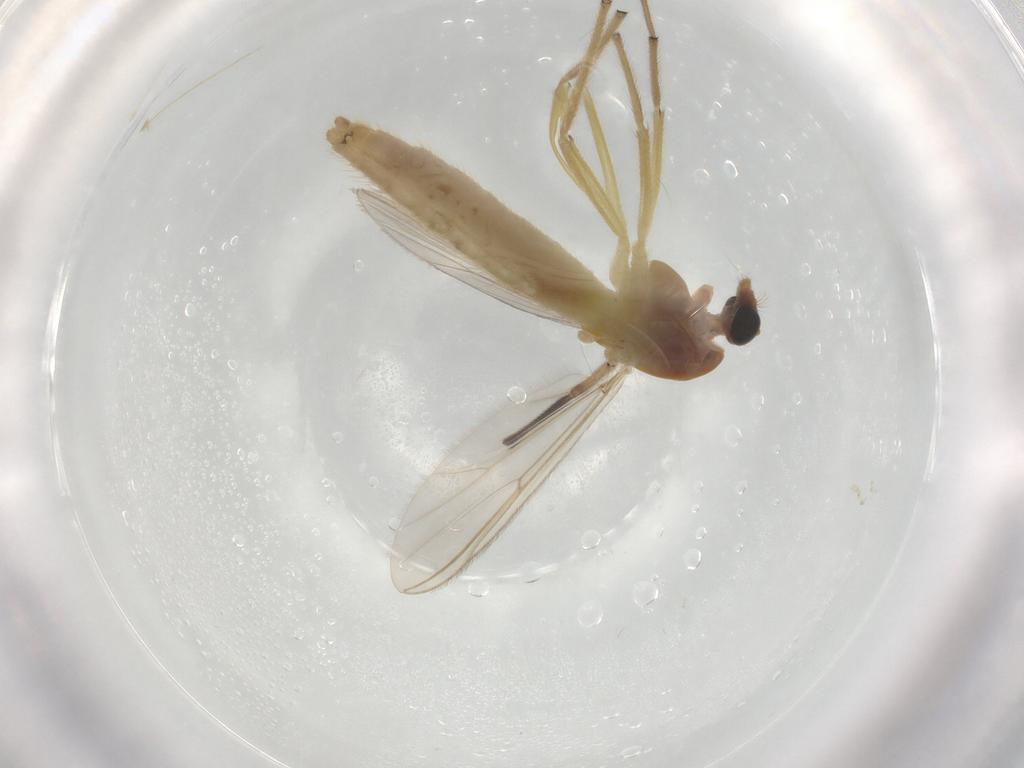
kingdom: Animalia
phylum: Arthropoda
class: Insecta
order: Diptera
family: Chironomidae
